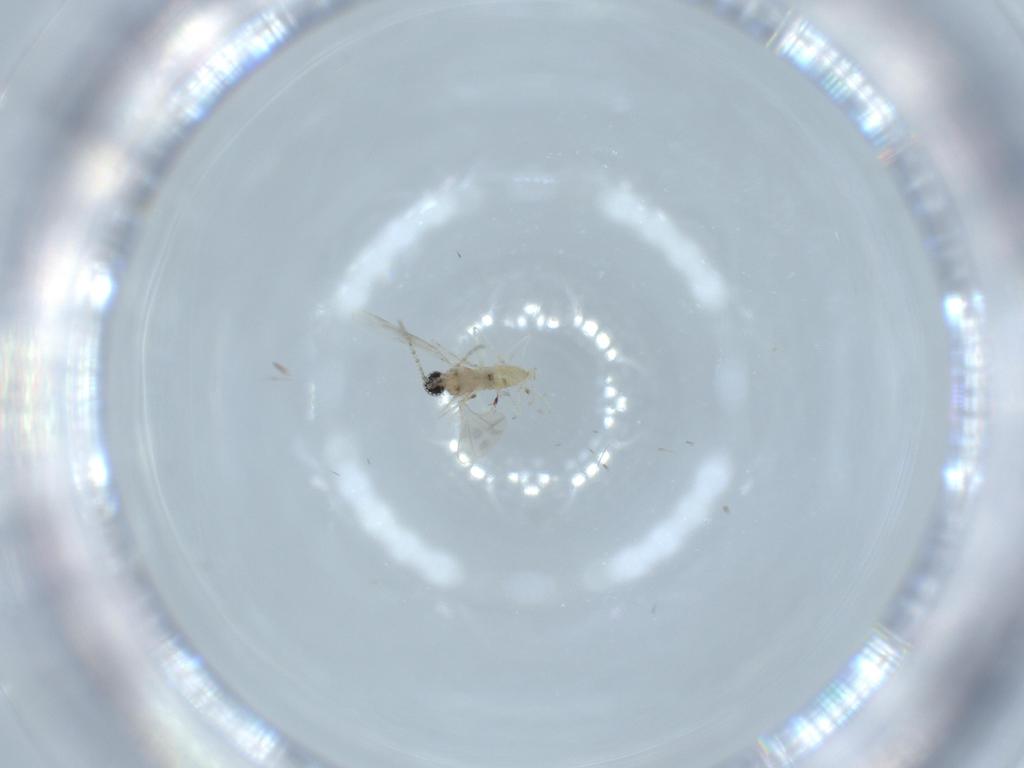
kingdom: Animalia
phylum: Arthropoda
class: Insecta
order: Diptera
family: Cecidomyiidae
